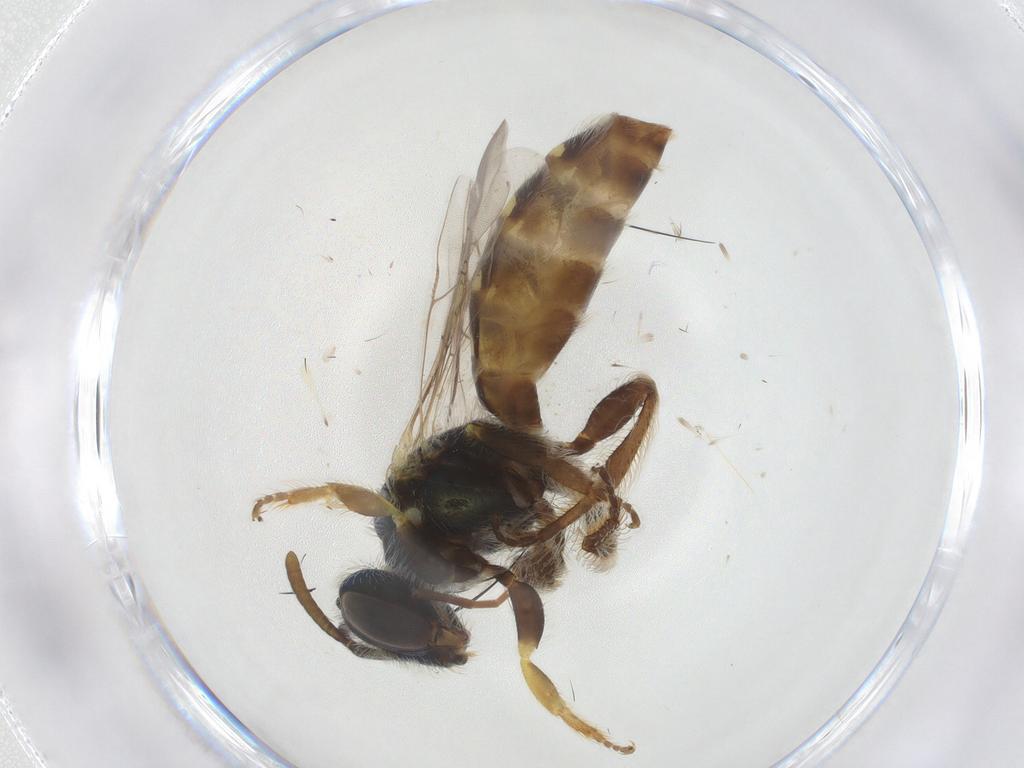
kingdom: Animalia
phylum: Arthropoda
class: Insecta
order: Hymenoptera
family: Andrenidae
